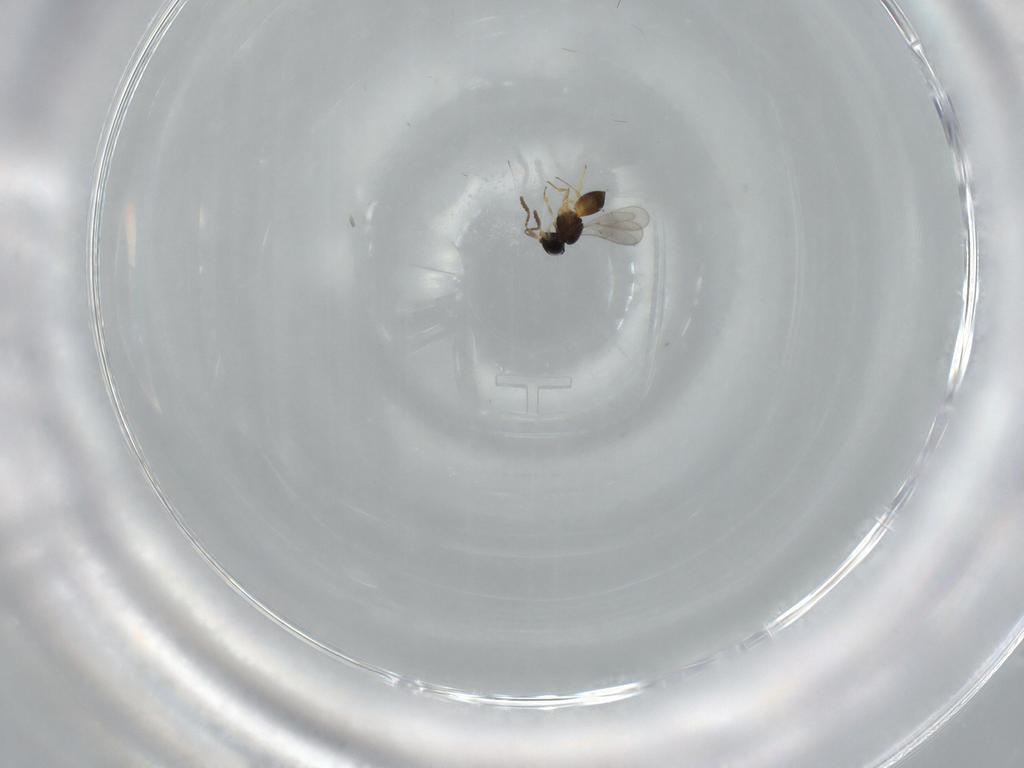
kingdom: Animalia
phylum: Arthropoda
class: Insecta
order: Hymenoptera
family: Scelionidae
